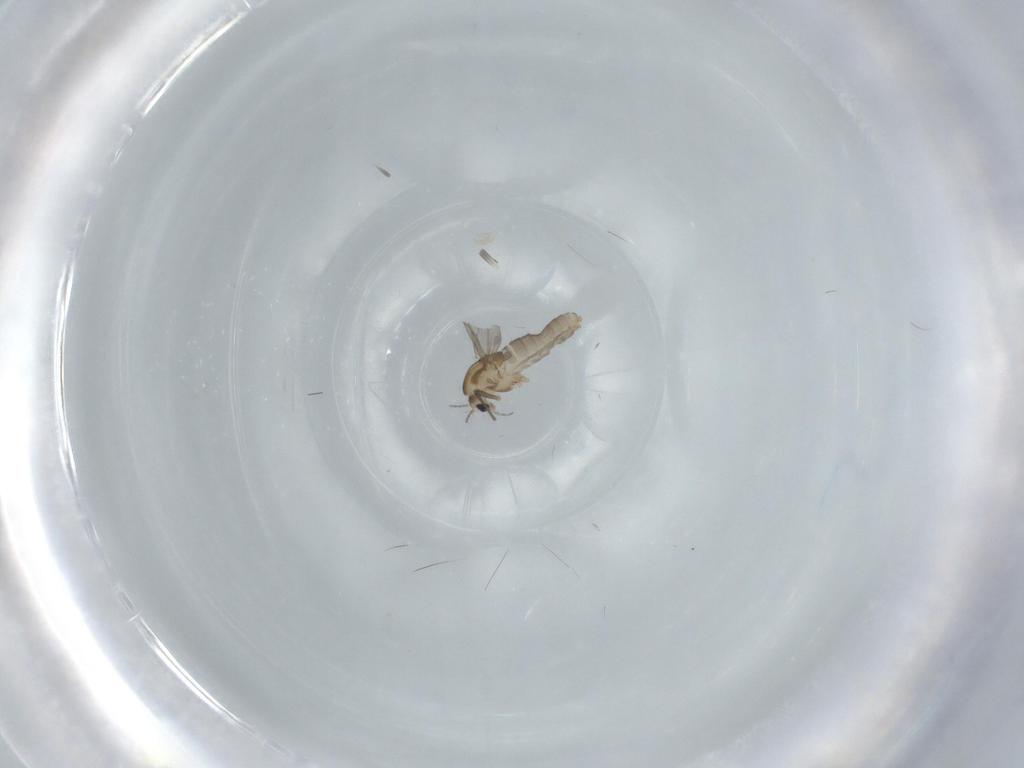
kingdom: Animalia
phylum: Arthropoda
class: Insecta
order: Diptera
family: Chironomidae
